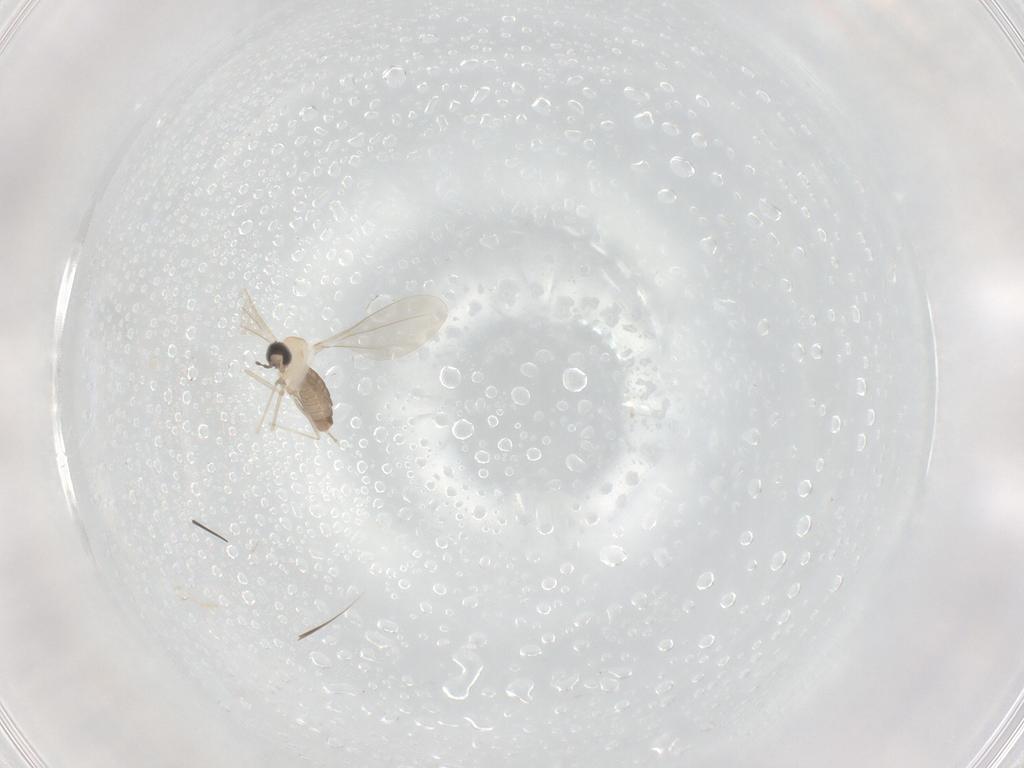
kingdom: Animalia
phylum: Arthropoda
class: Insecta
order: Diptera
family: Cecidomyiidae
